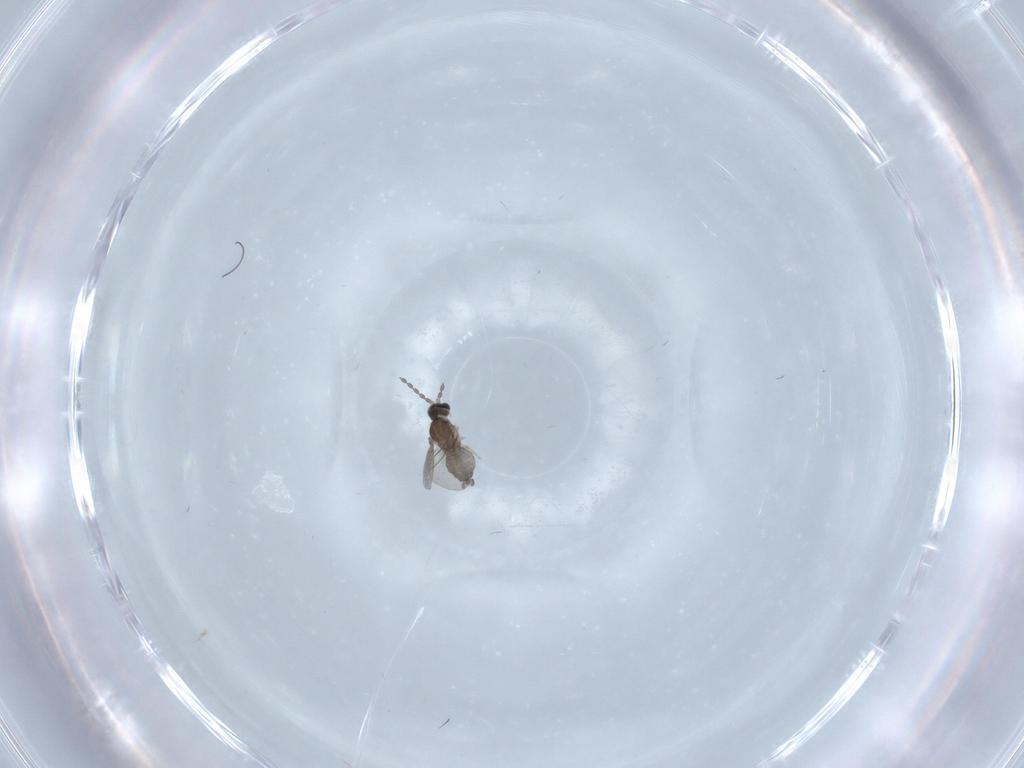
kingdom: Animalia
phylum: Arthropoda
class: Insecta
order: Diptera
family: Cecidomyiidae
